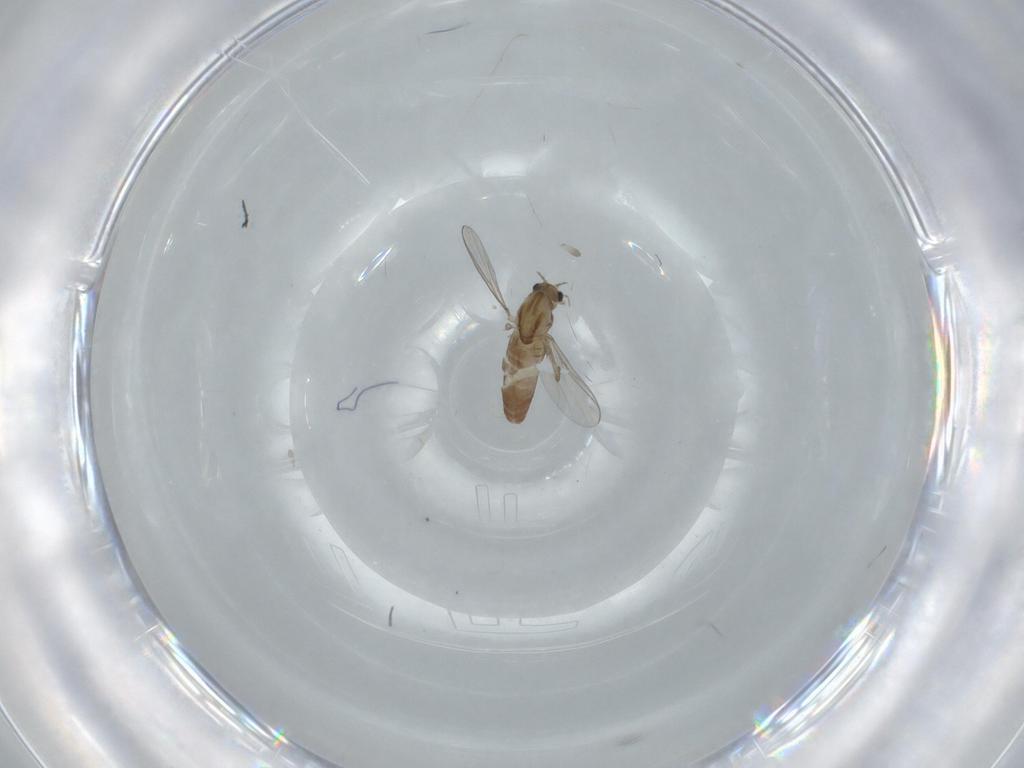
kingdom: Animalia
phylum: Arthropoda
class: Insecta
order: Diptera
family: Chironomidae
